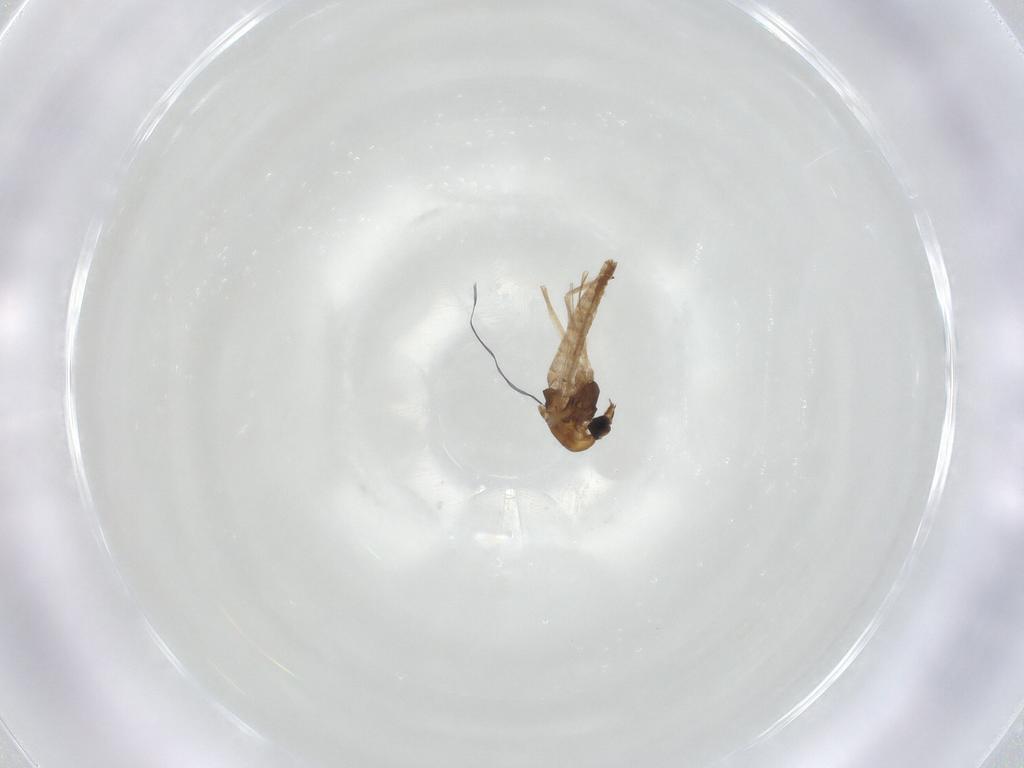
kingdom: Animalia
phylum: Arthropoda
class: Insecta
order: Diptera
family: Chironomidae
